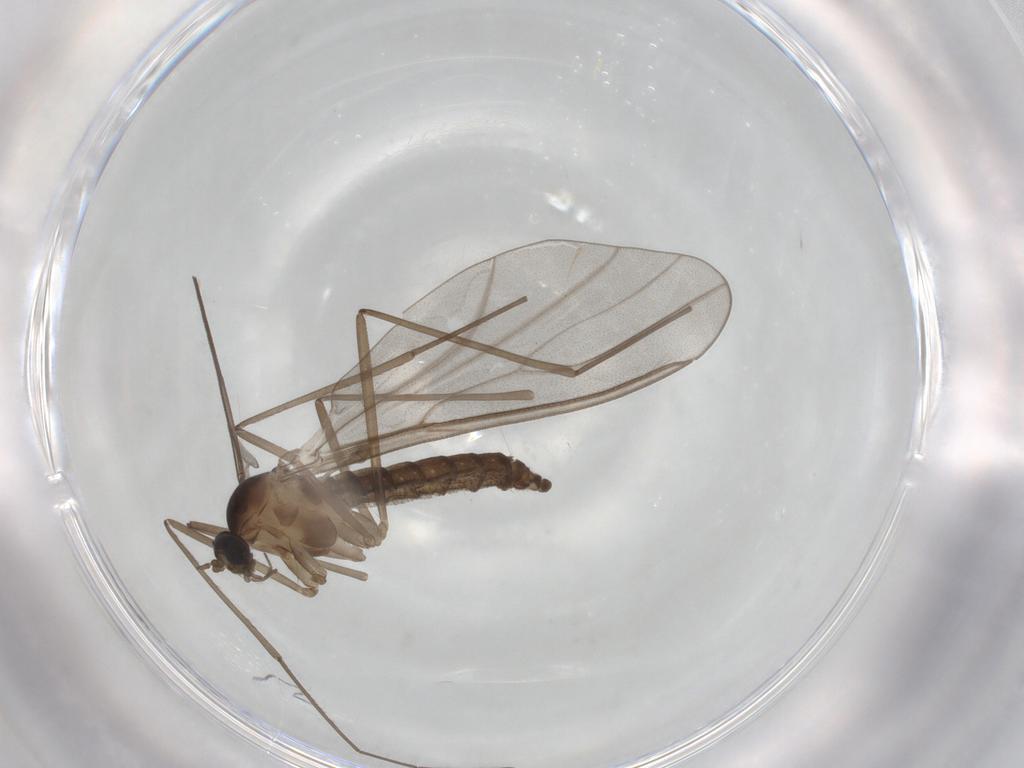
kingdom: Animalia
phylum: Arthropoda
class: Insecta
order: Diptera
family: Cecidomyiidae
